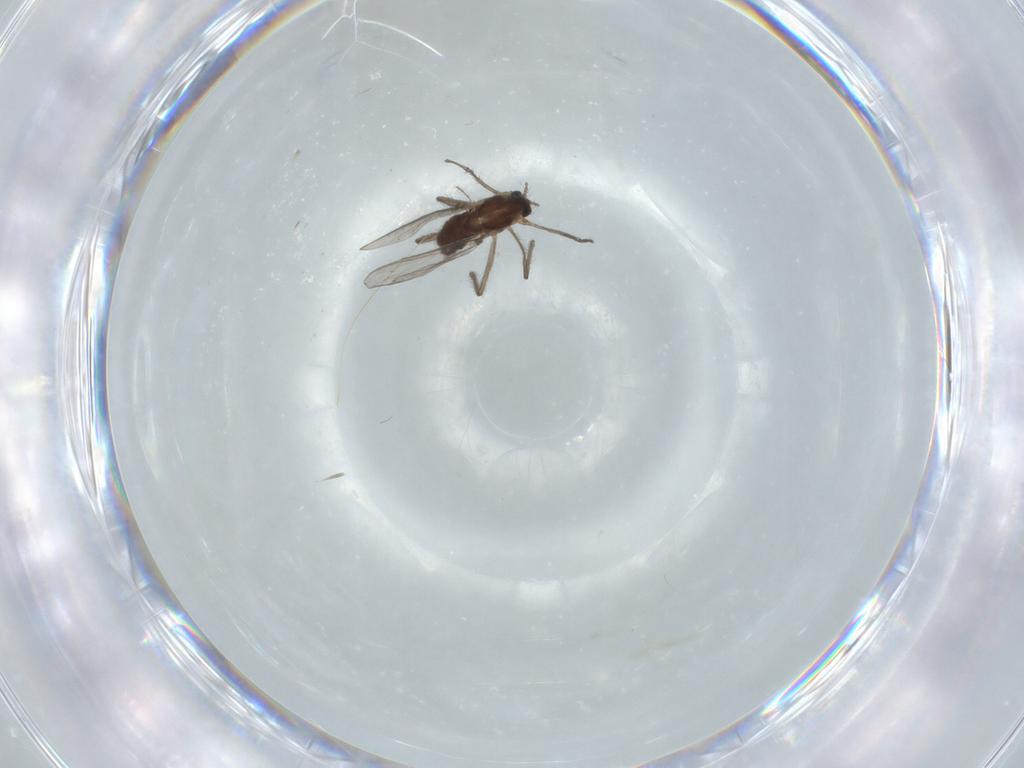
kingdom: Animalia
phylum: Arthropoda
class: Insecta
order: Diptera
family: Chironomidae
